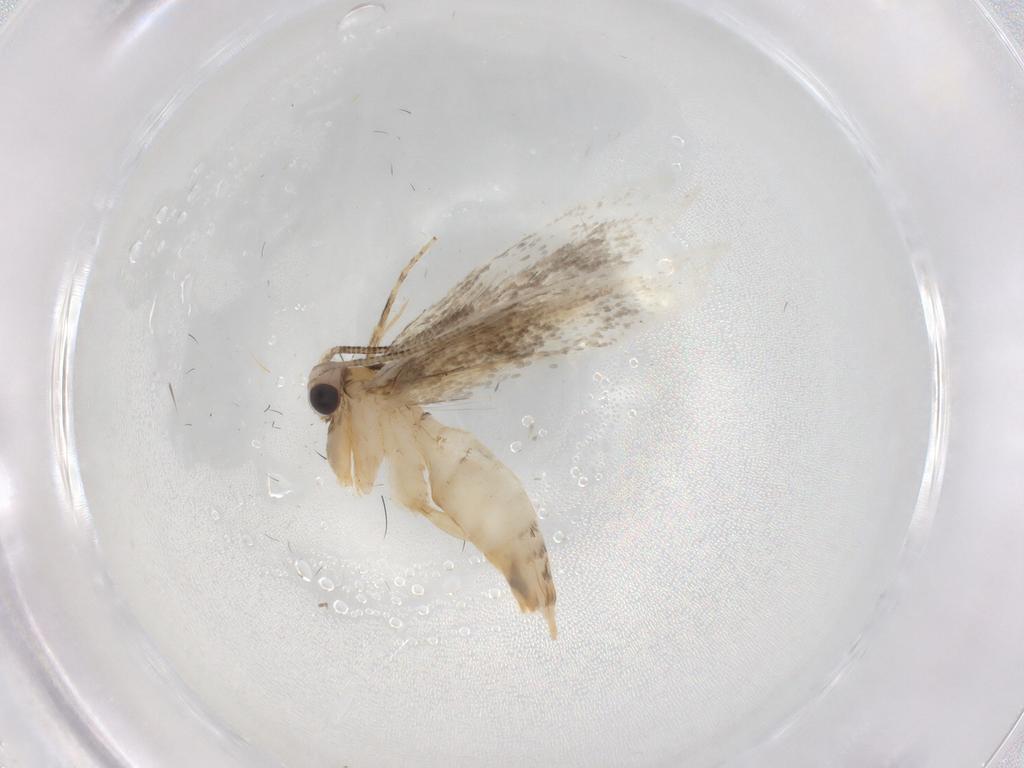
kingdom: Animalia
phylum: Arthropoda
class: Insecta
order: Lepidoptera
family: Tineidae
